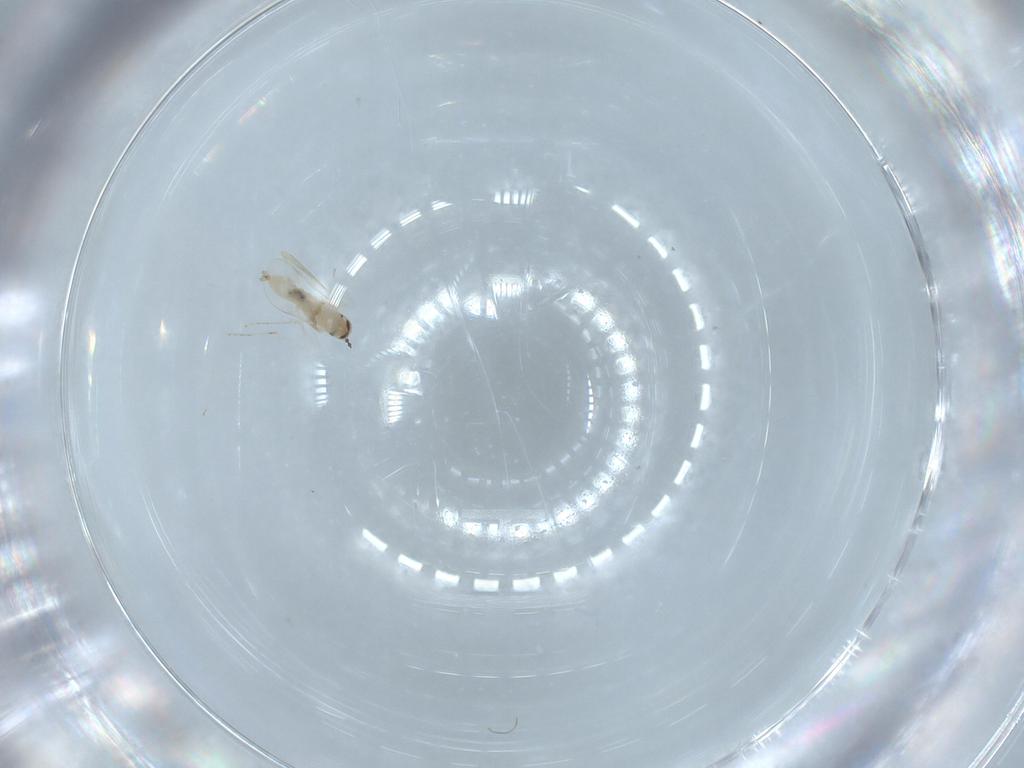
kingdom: Animalia
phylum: Arthropoda
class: Insecta
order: Diptera
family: Cecidomyiidae
